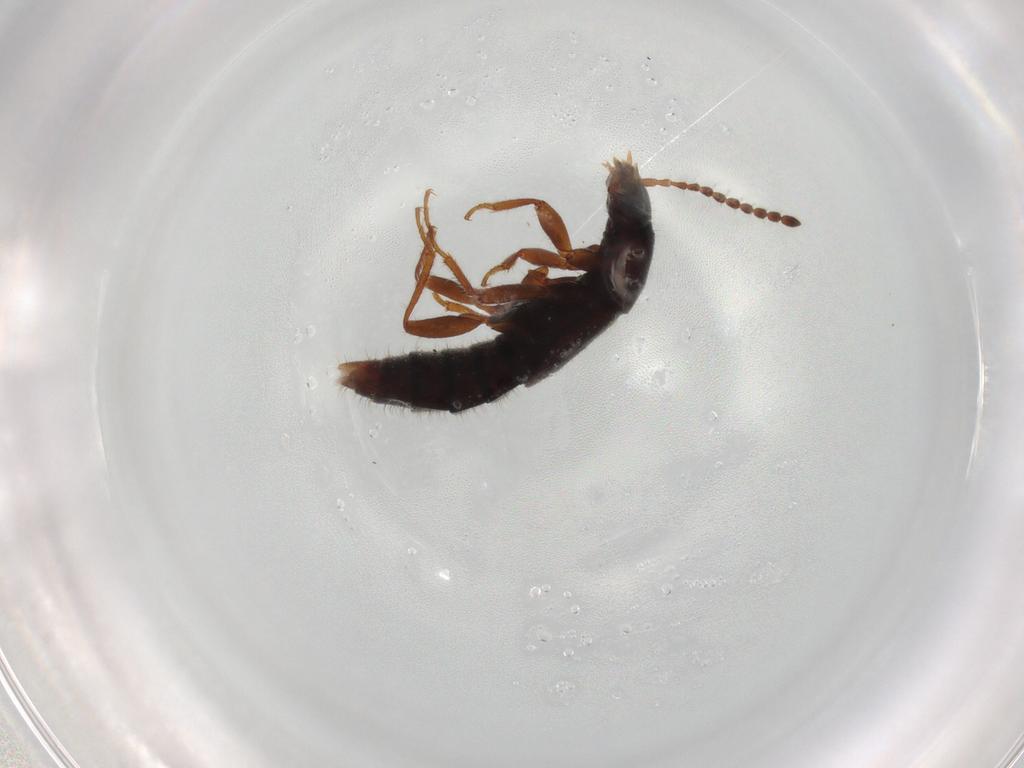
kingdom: Animalia
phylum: Arthropoda
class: Insecta
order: Coleoptera
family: Staphylinidae
